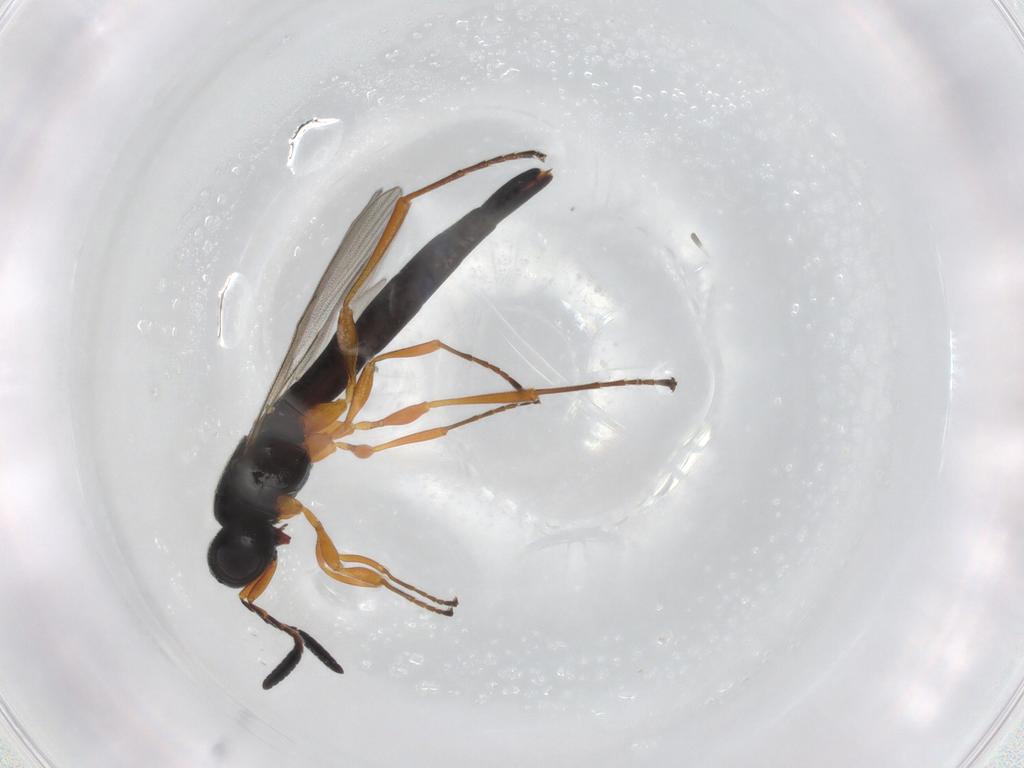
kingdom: Animalia
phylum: Arthropoda
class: Insecta
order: Hymenoptera
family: Scelionidae
